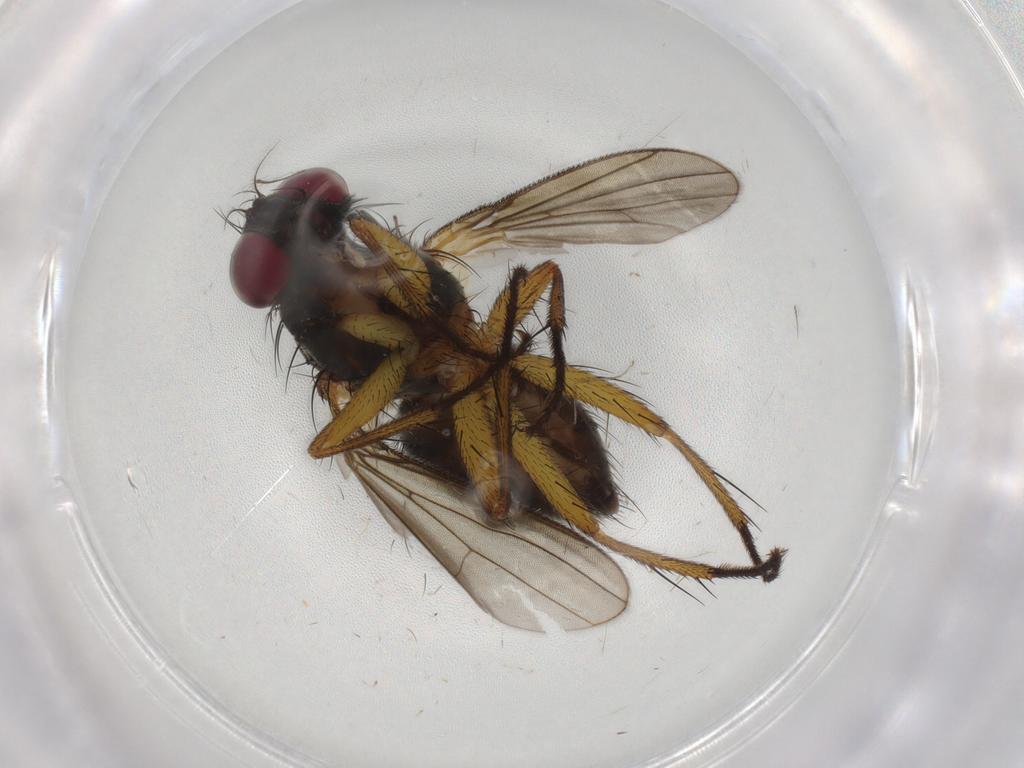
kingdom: Animalia
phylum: Arthropoda
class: Insecta
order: Diptera
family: Muscidae
